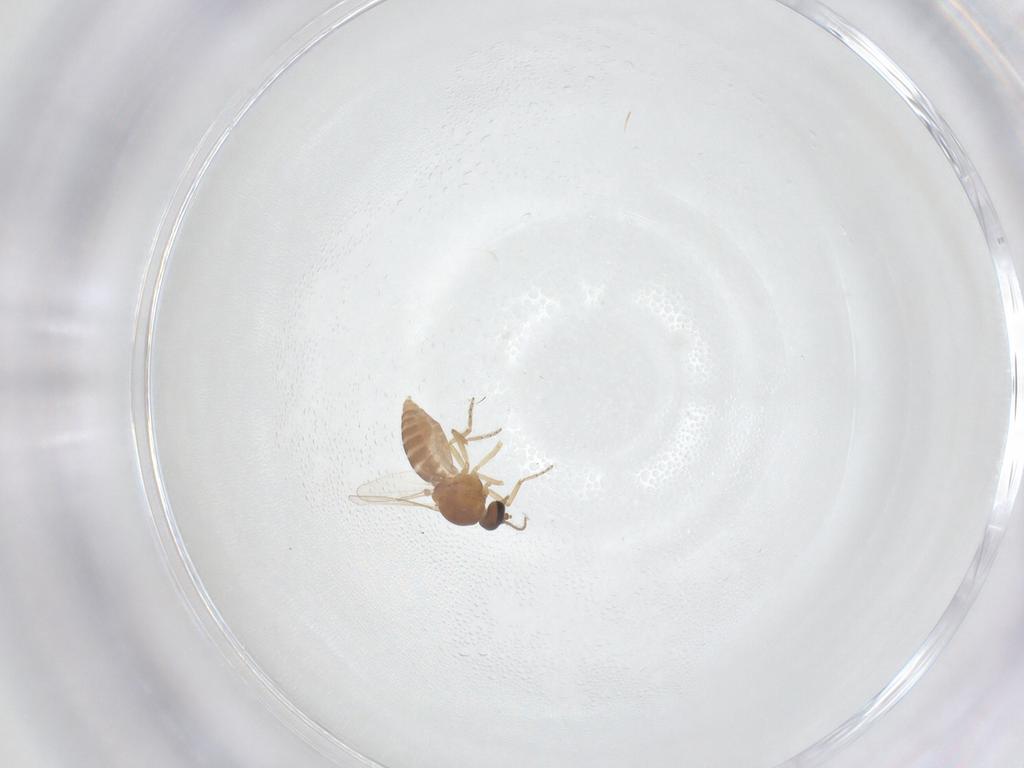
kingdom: Animalia
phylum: Arthropoda
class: Insecta
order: Diptera
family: Ceratopogonidae
